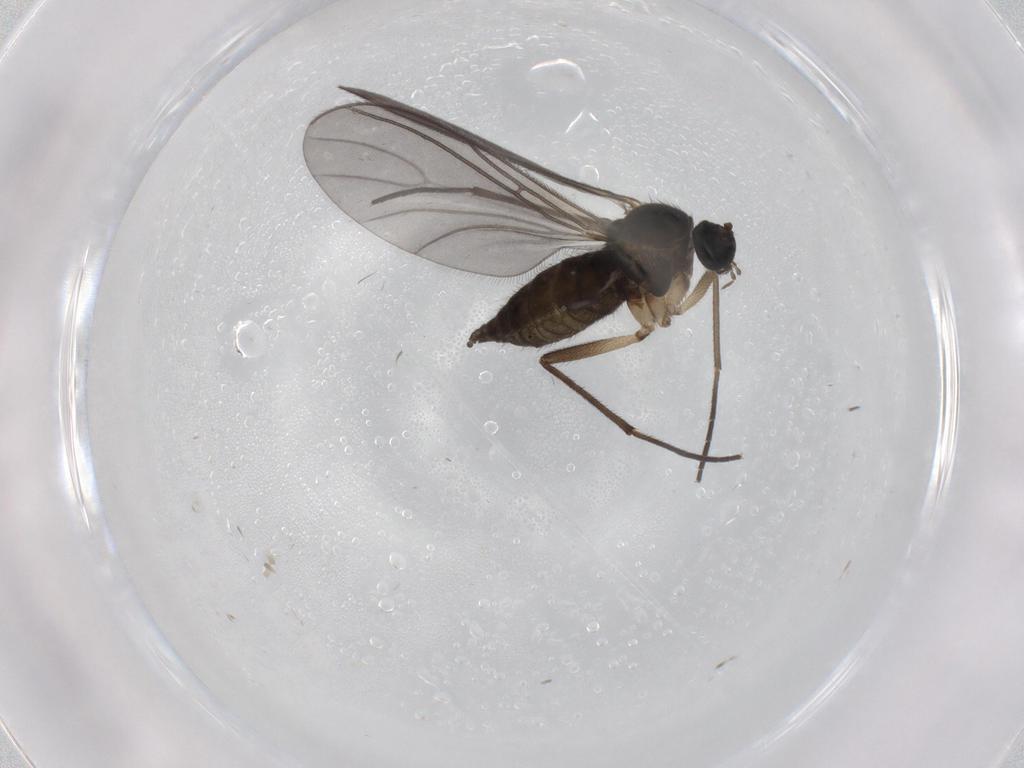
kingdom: Animalia
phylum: Arthropoda
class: Insecta
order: Diptera
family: Sciaridae
